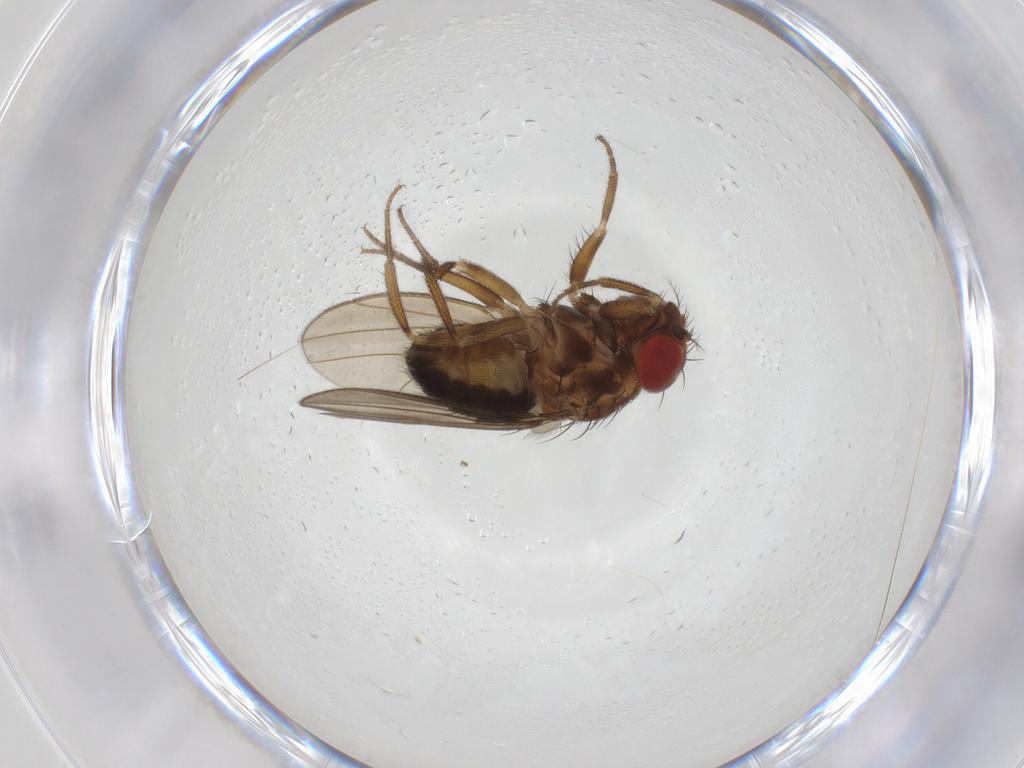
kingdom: Animalia
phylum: Arthropoda
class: Insecta
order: Diptera
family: Drosophilidae
